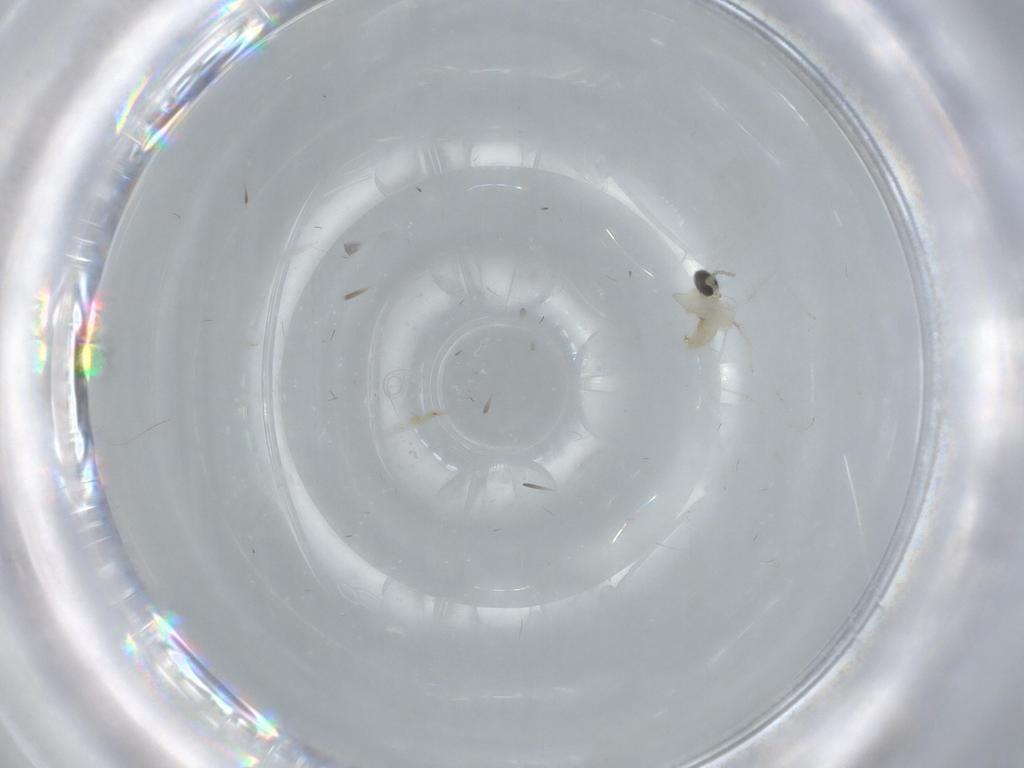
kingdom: Animalia
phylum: Arthropoda
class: Insecta
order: Diptera
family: Cecidomyiidae
